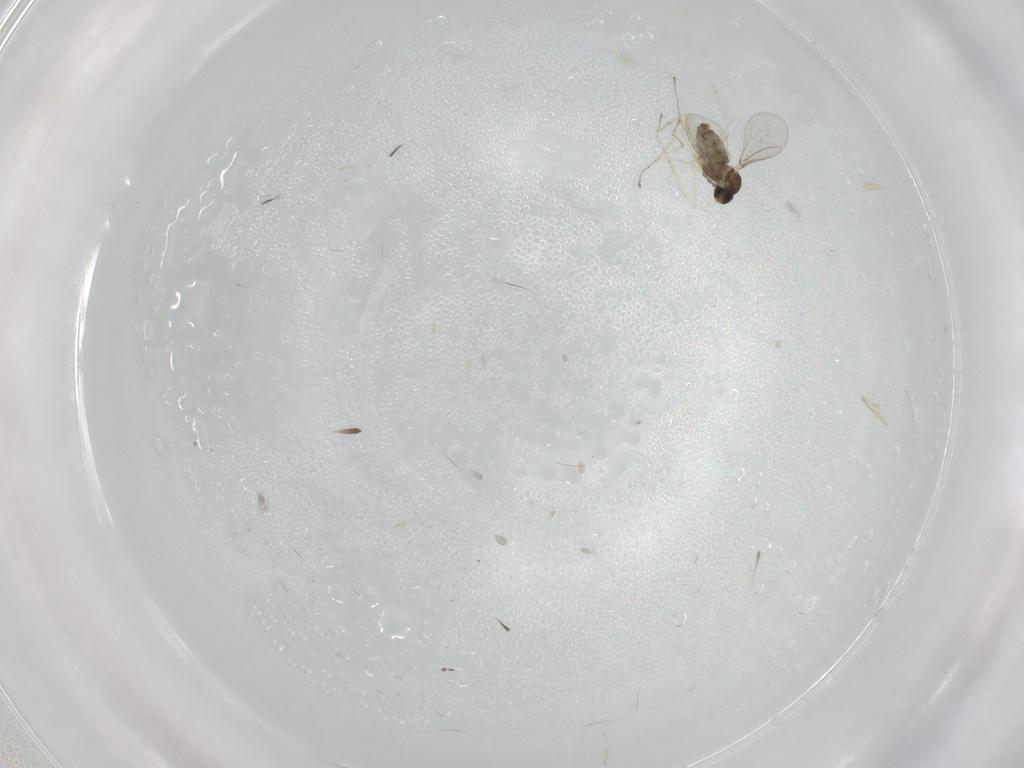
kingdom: Animalia
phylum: Arthropoda
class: Insecta
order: Diptera
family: Cecidomyiidae
